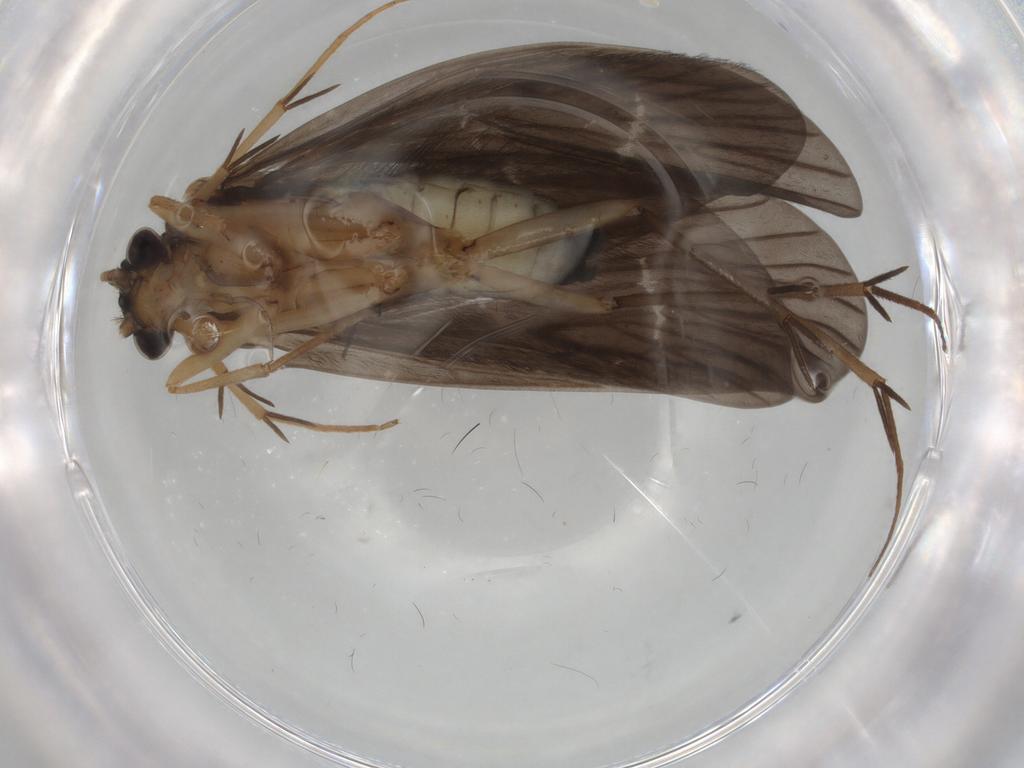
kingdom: Animalia
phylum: Arthropoda
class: Insecta
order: Trichoptera
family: Philopotamidae
